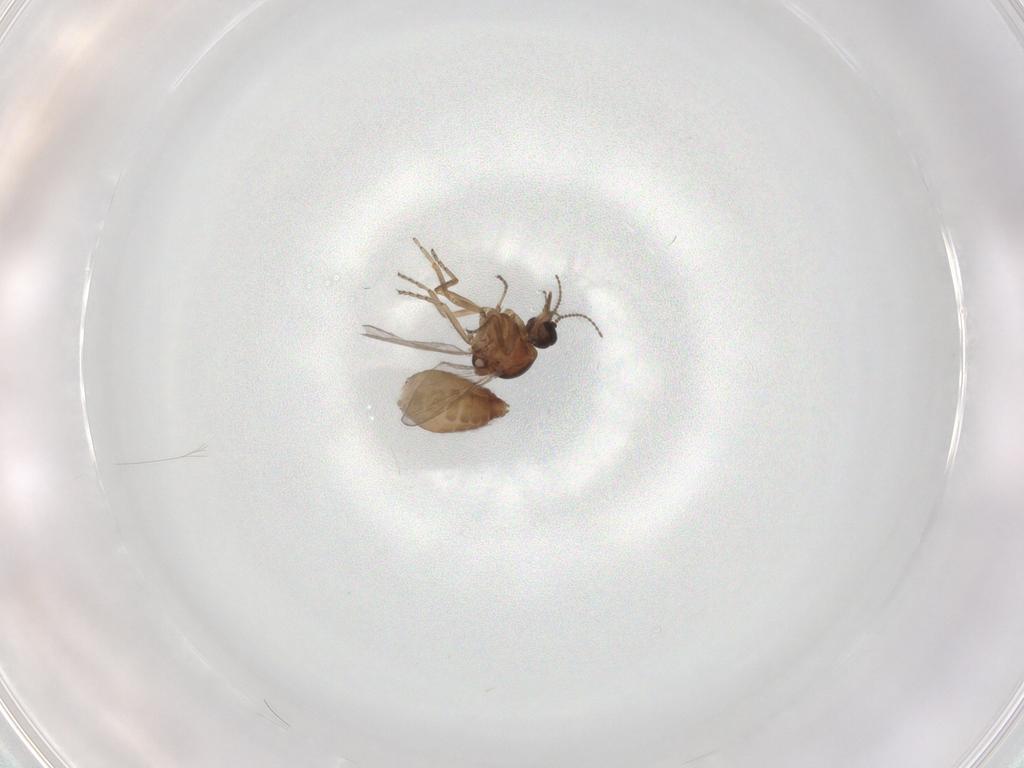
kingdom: Animalia
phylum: Arthropoda
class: Insecta
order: Diptera
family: Ceratopogonidae
